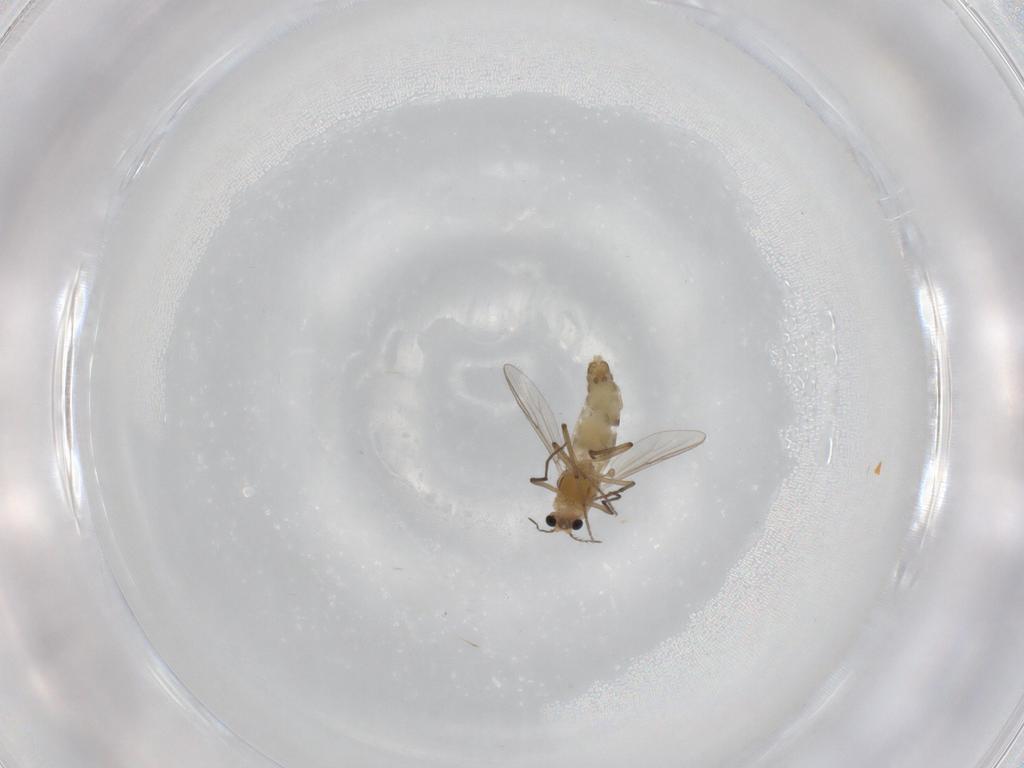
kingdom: Animalia
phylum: Arthropoda
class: Insecta
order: Diptera
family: Chironomidae
